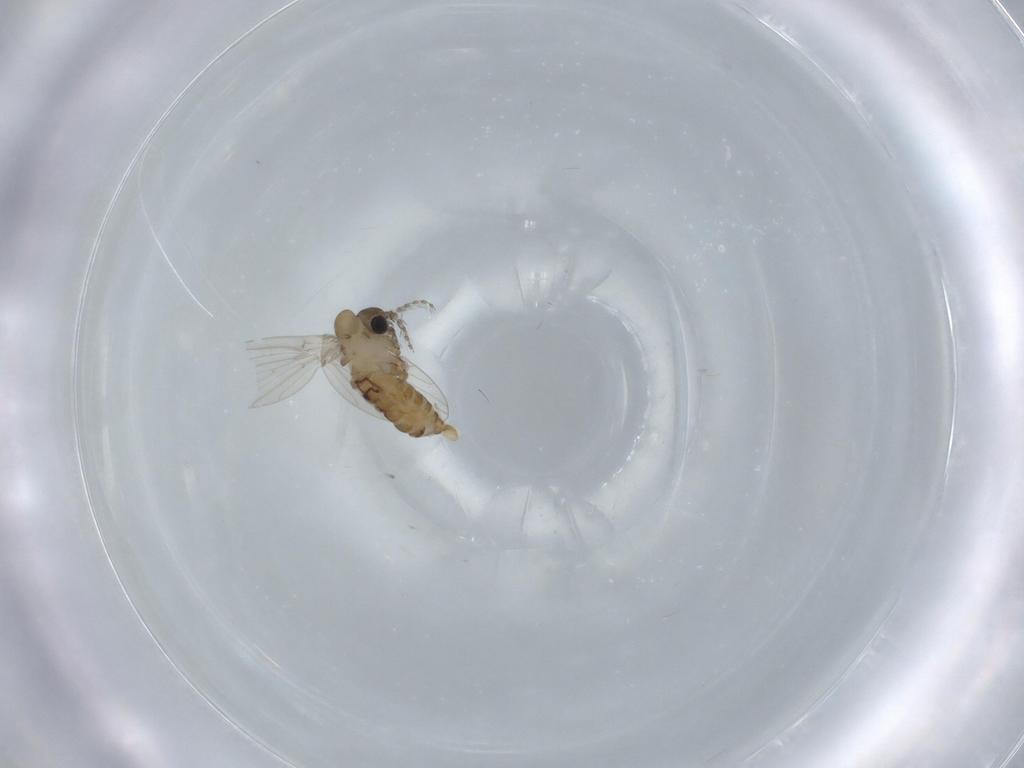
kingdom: Animalia
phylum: Arthropoda
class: Insecta
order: Diptera
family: Psychodidae
